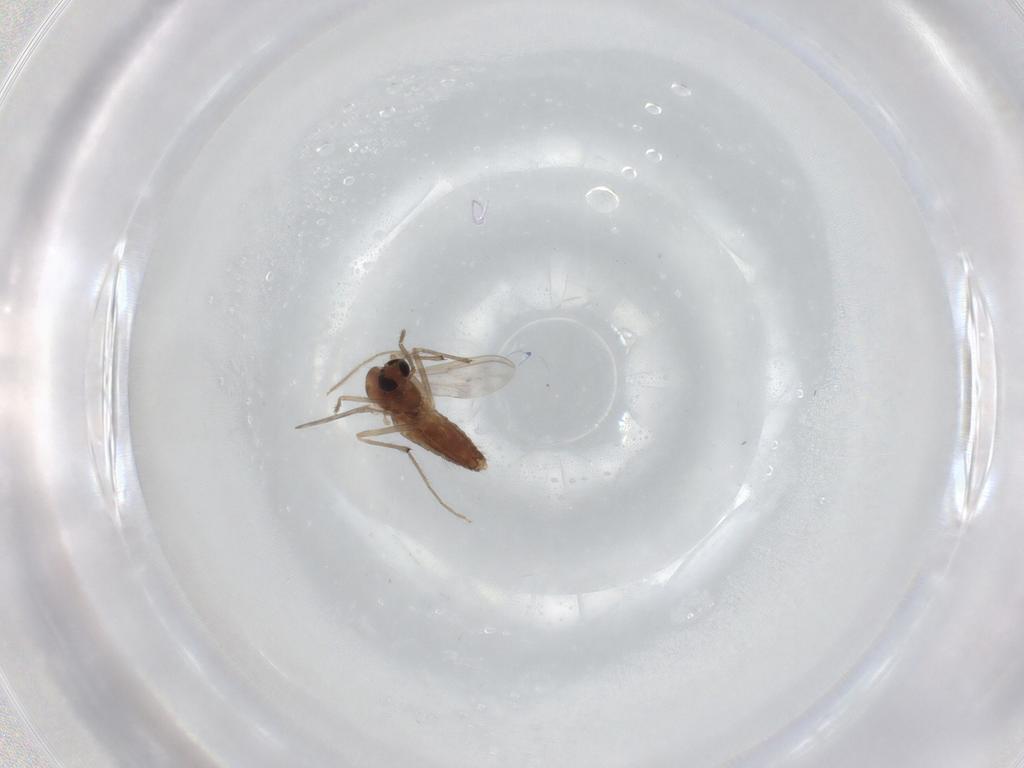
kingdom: Animalia
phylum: Arthropoda
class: Insecta
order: Diptera
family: Chironomidae
